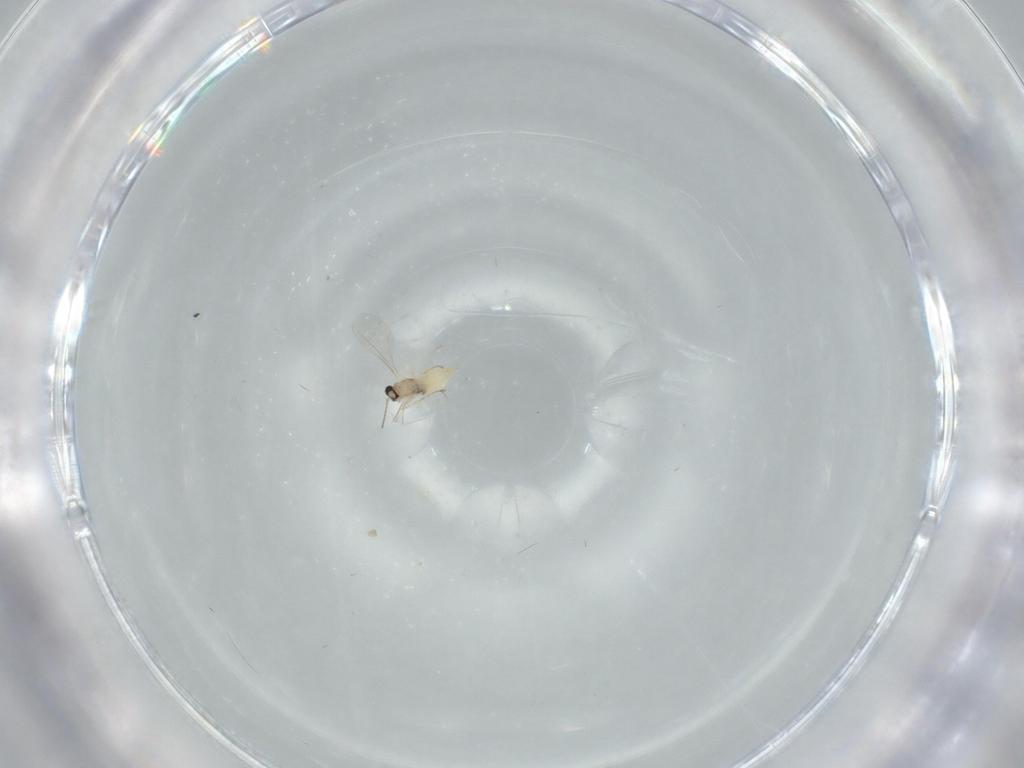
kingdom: Animalia
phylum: Arthropoda
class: Insecta
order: Diptera
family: Cecidomyiidae
